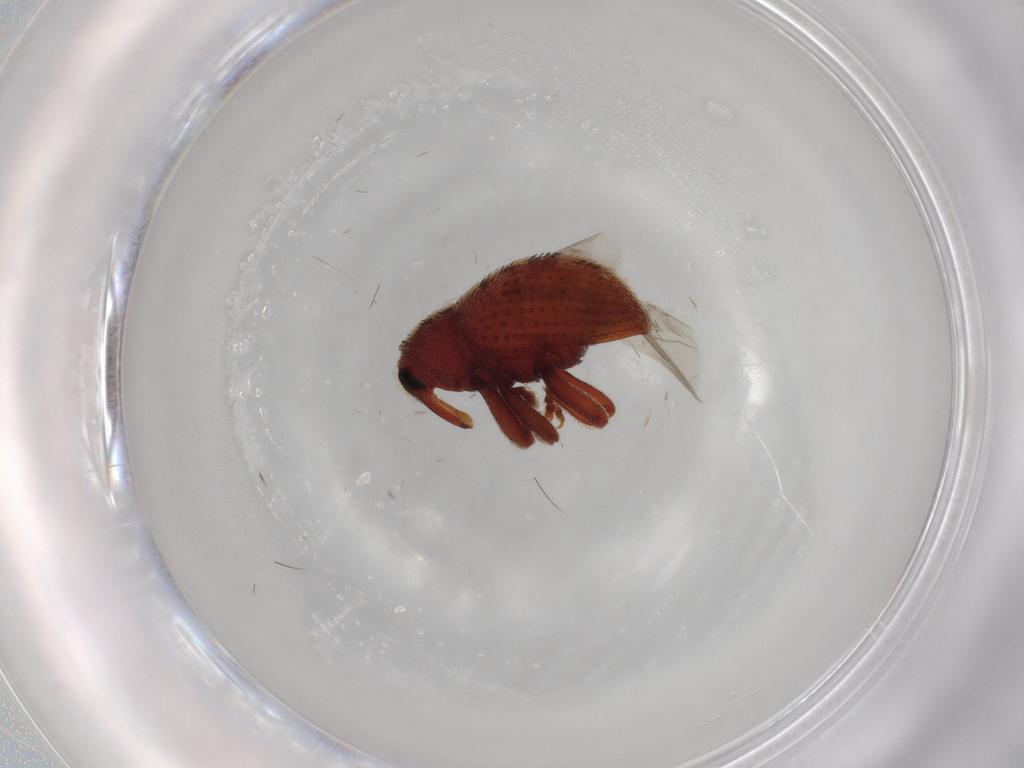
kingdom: Animalia
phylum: Arthropoda
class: Insecta
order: Coleoptera
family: Curculionidae
